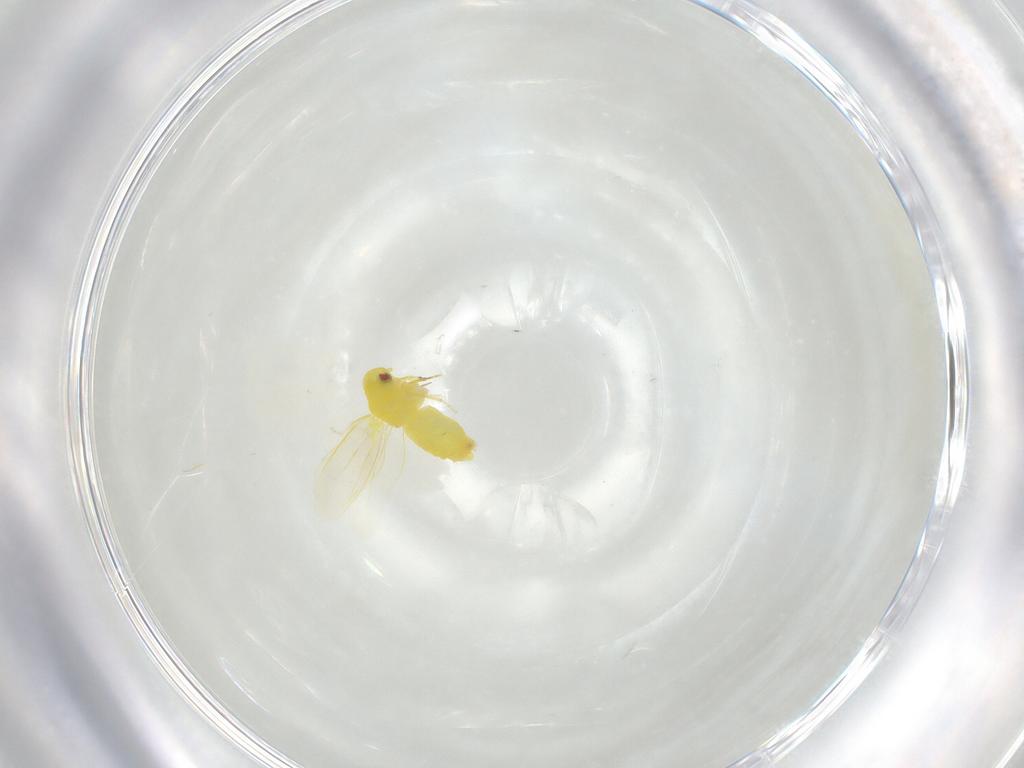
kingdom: Animalia
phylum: Arthropoda
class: Insecta
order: Hemiptera
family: Aleyrodidae
